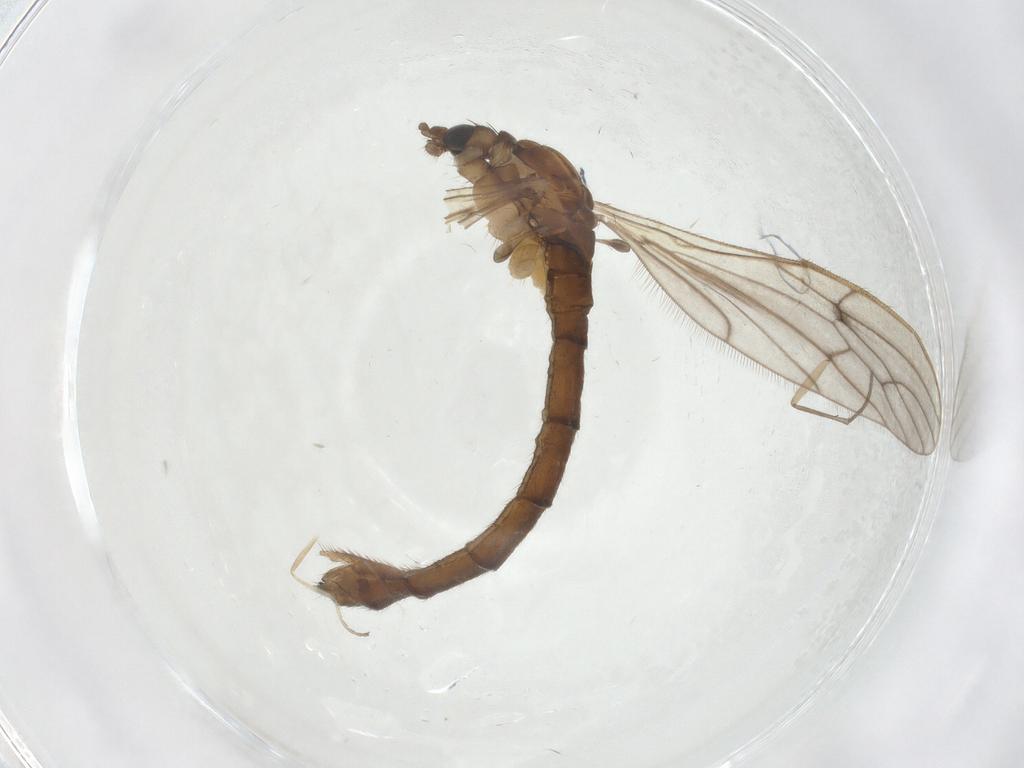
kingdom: Animalia
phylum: Arthropoda
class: Insecta
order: Diptera
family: Limoniidae
